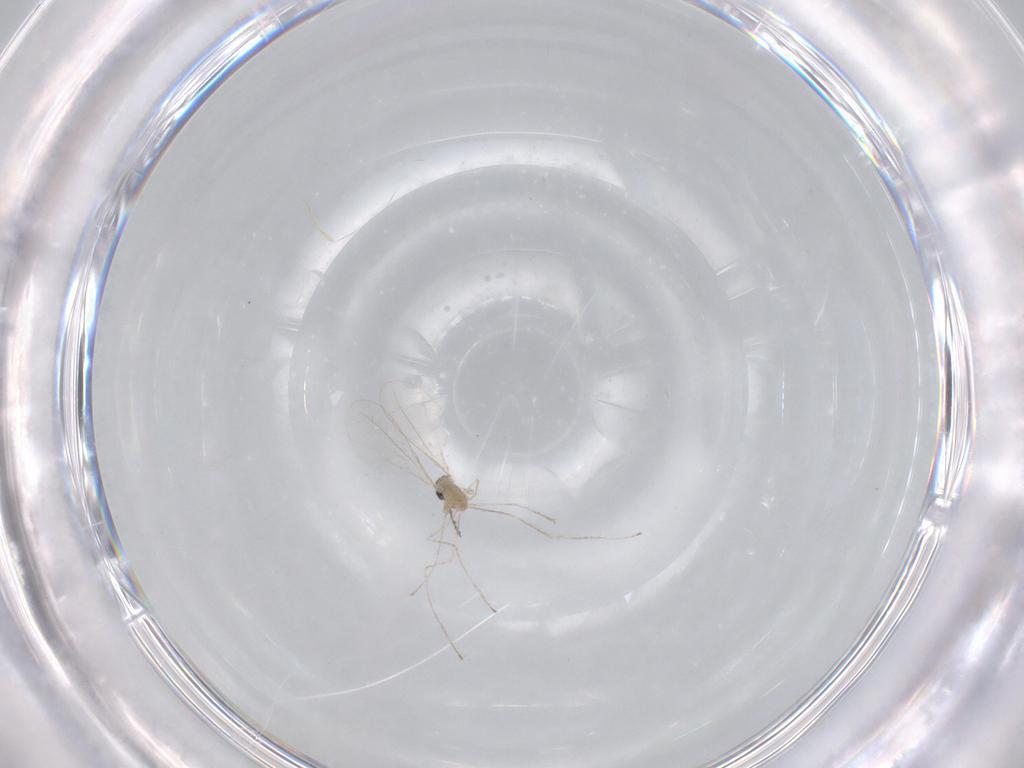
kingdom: Animalia
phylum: Arthropoda
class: Insecta
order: Diptera
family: Cecidomyiidae
